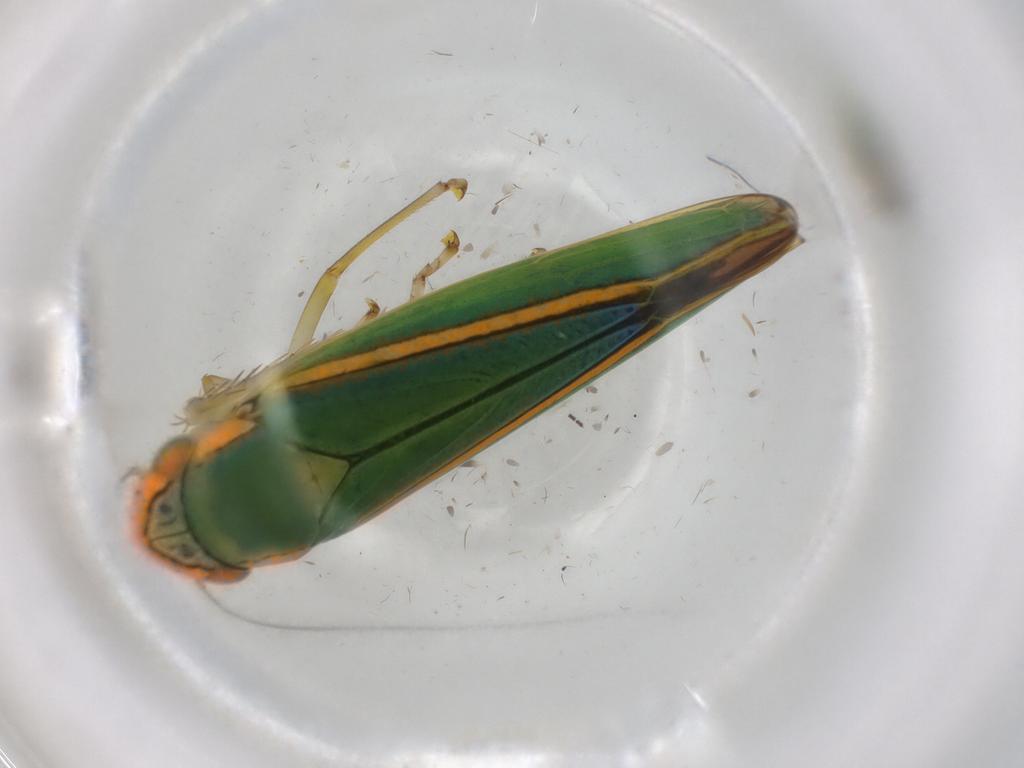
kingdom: Animalia
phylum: Arthropoda
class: Insecta
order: Hemiptera
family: Cicadellidae
